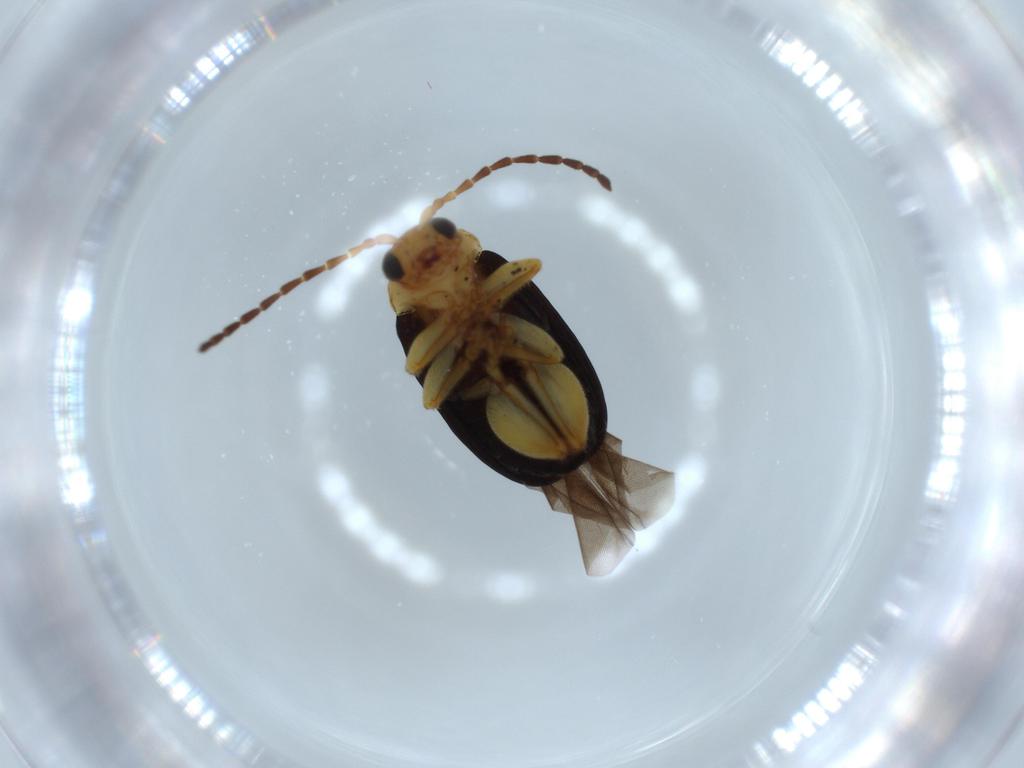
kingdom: Animalia
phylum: Arthropoda
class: Insecta
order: Coleoptera
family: Chrysomelidae
